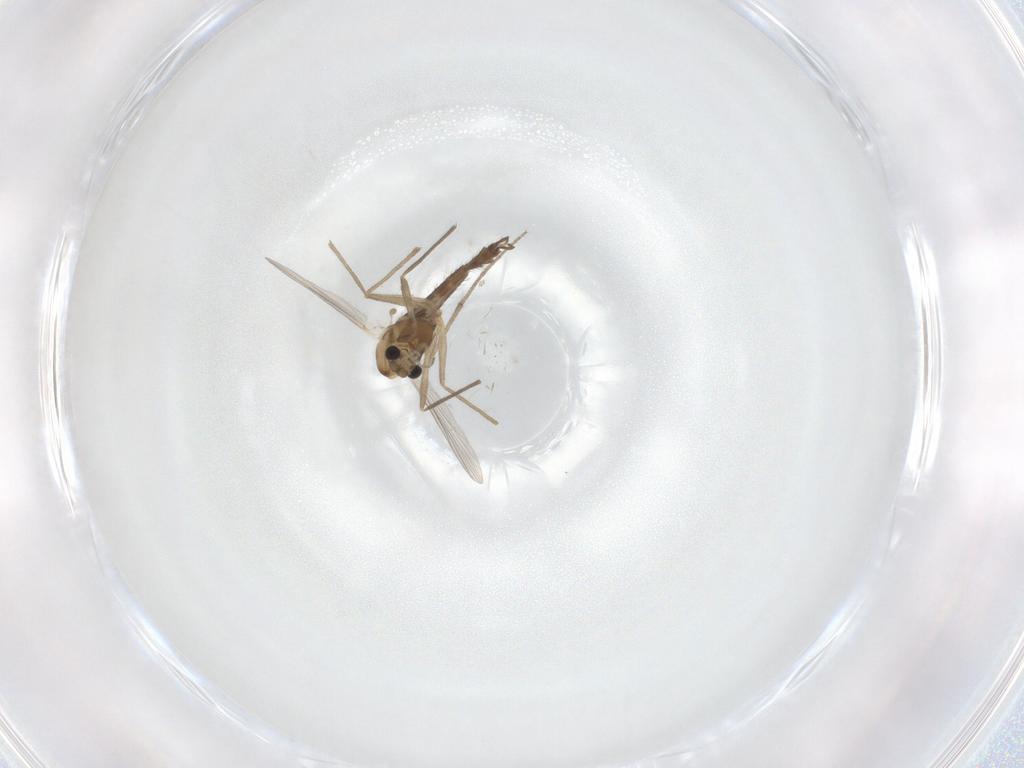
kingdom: Animalia
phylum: Arthropoda
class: Insecta
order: Diptera
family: Chironomidae
